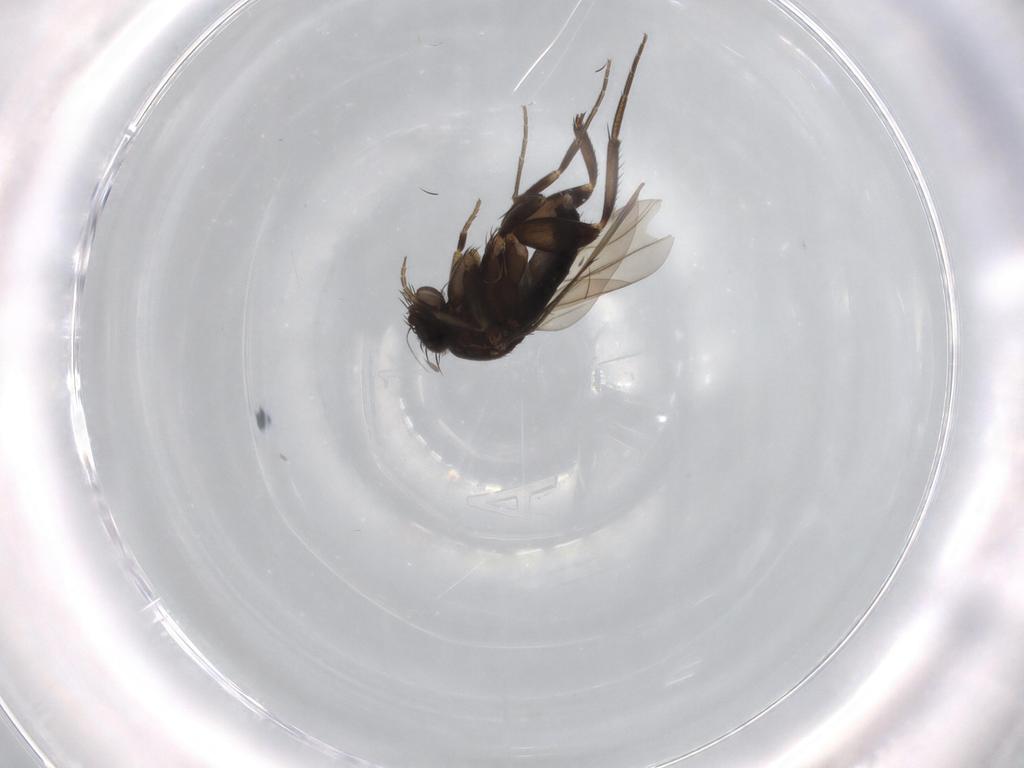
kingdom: Animalia
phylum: Arthropoda
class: Insecta
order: Diptera
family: Phoridae
